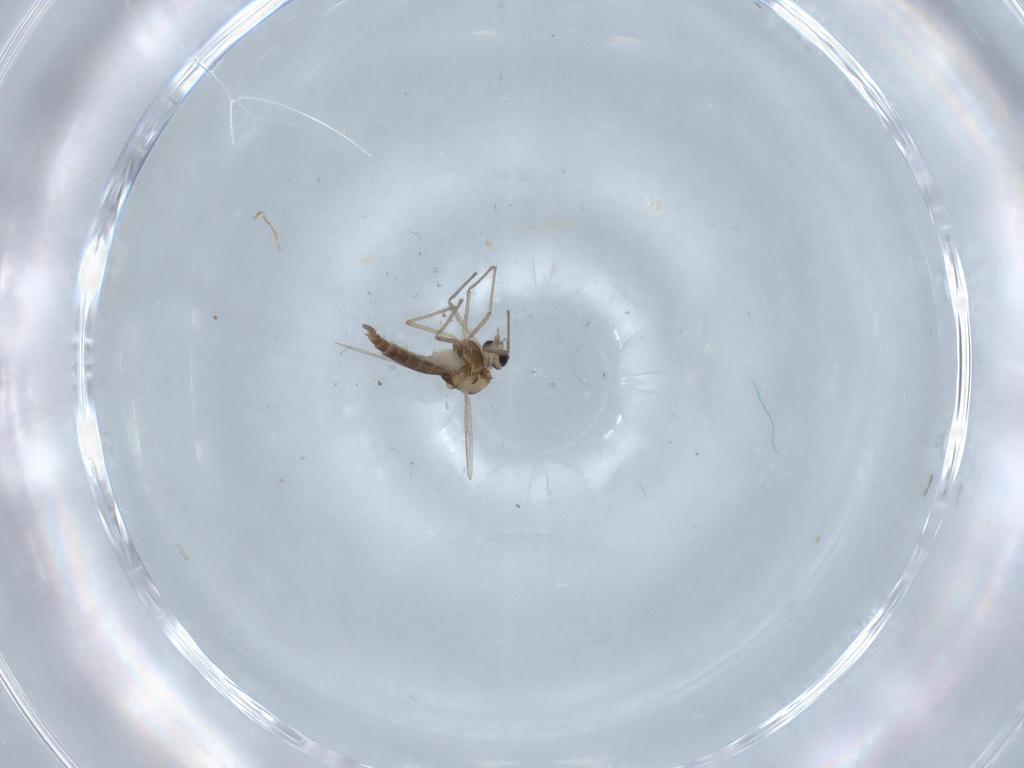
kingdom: Animalia
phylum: Arthropoda
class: Insecta
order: Diptera
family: Chironomidae
